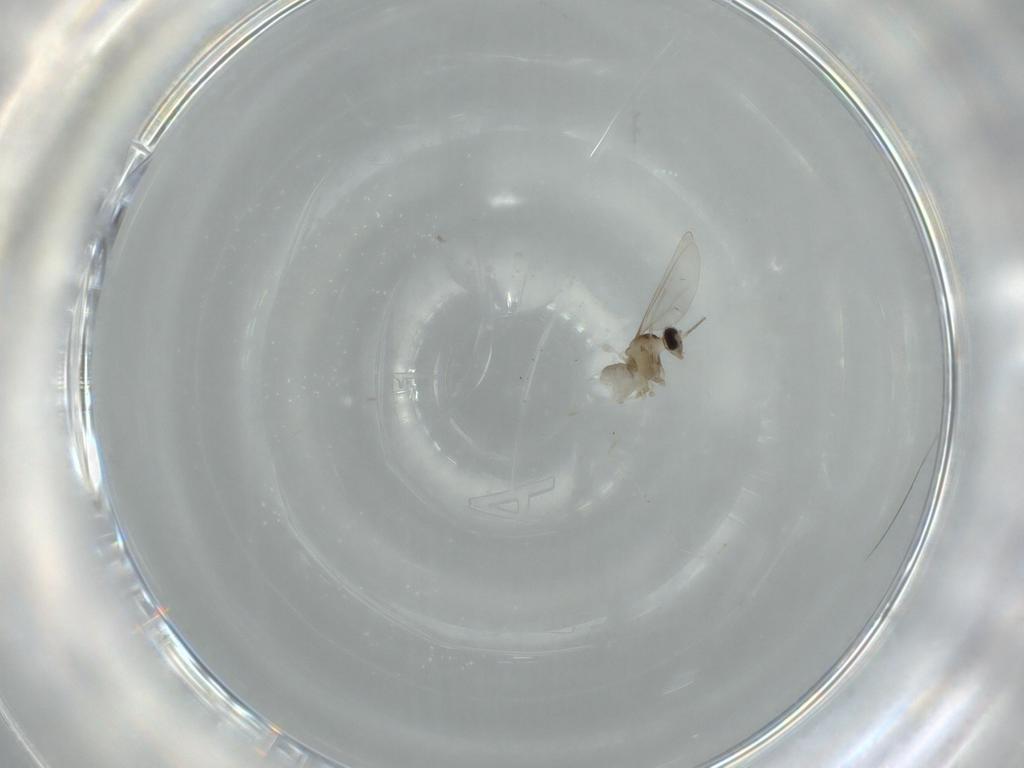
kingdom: Animalia
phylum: Arthropoda
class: Insecta
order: Diptera
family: Cecidomyiidae
